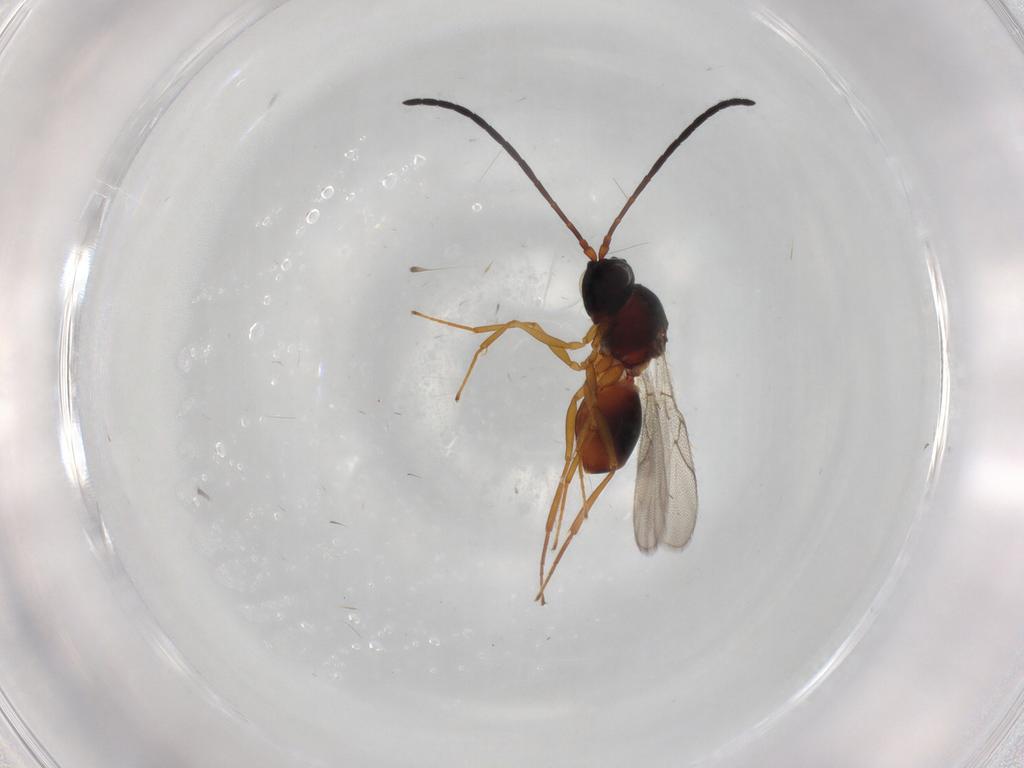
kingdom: Animalia
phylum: Arthropoda
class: Insecta
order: Hymenoptera
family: Figitidae
